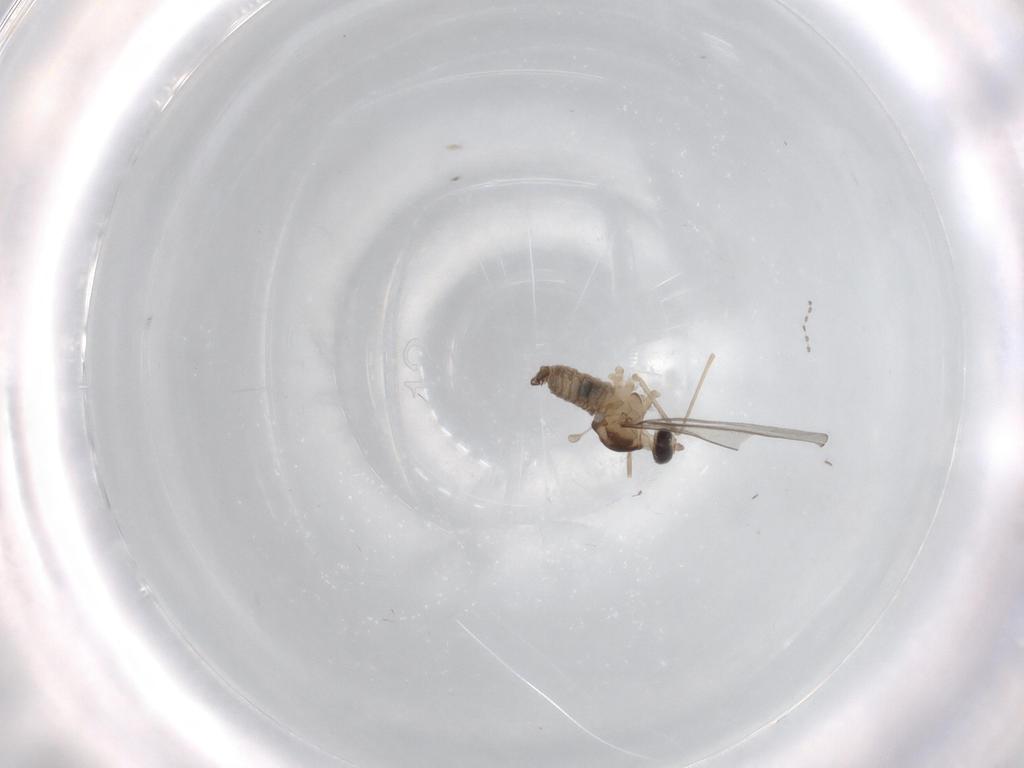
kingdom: Animalia
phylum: Arthropoda
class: Insecta
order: Diptera
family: Cecidomyiidae
